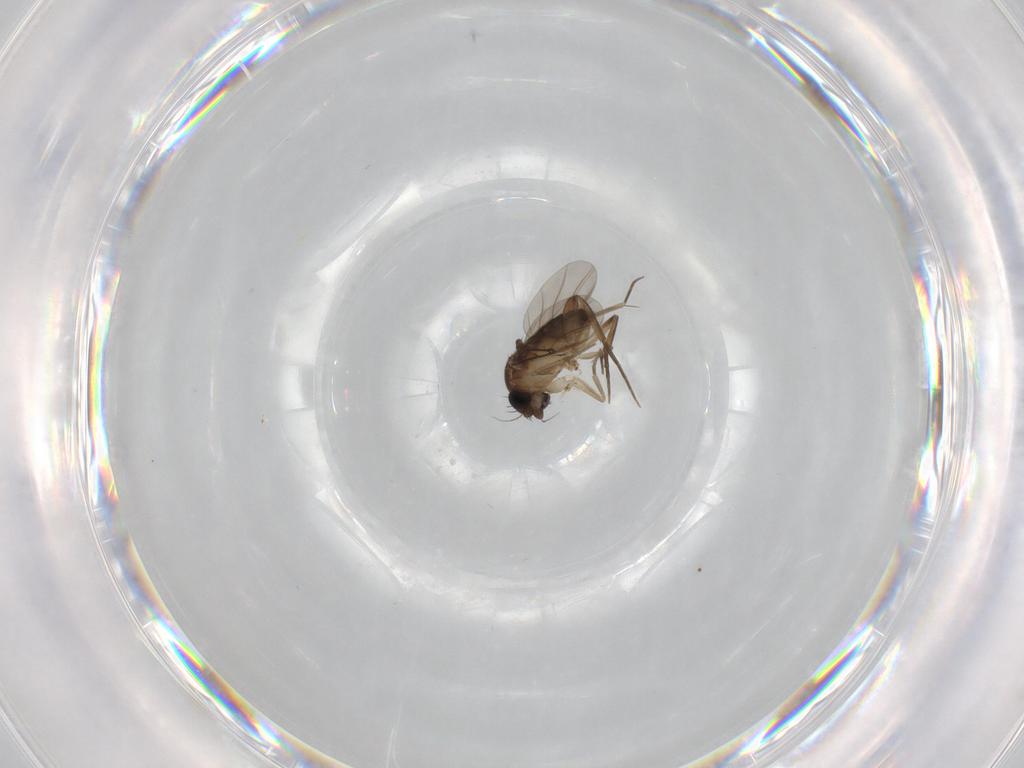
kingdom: Animalia
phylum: Arthropoda
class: Insecta
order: Diptera
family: Phoridae
